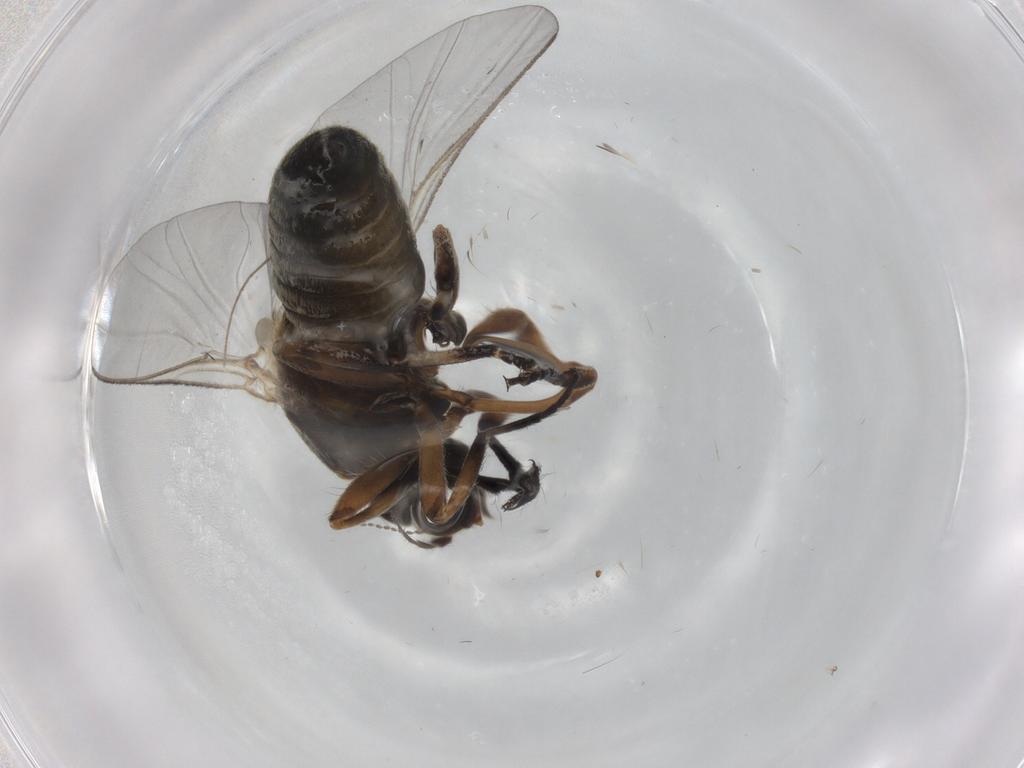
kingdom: Animalia
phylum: Arthropoda
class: Insecta
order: Diptera
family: Simuliidae
